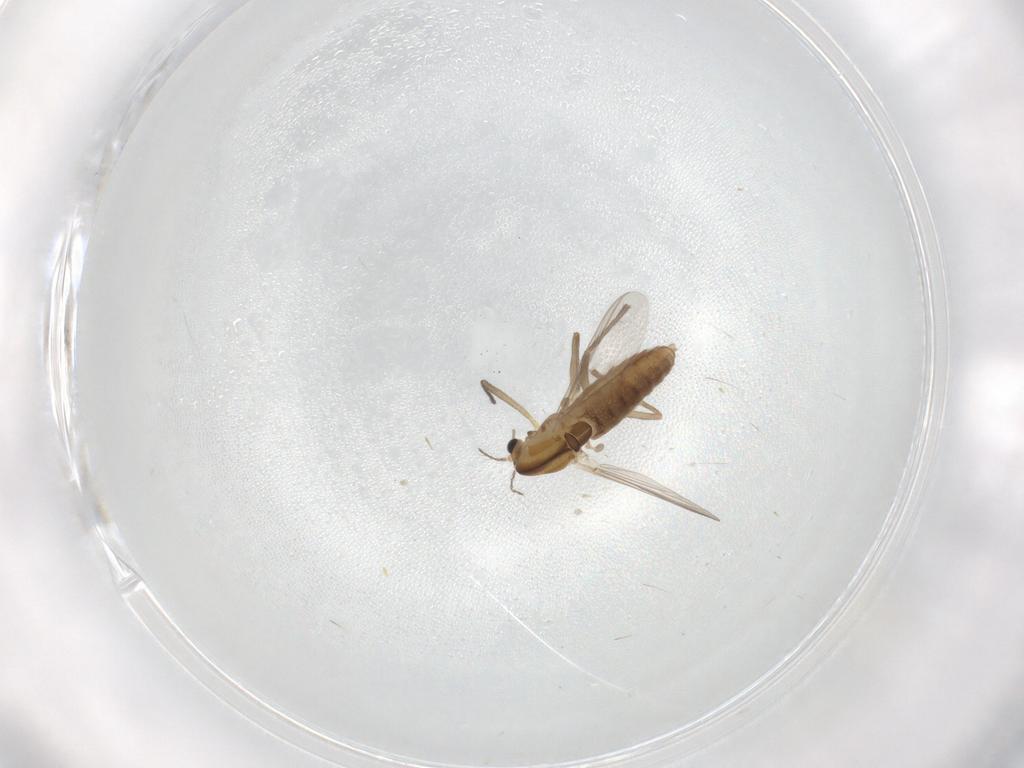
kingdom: Animalia
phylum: Arthropoda
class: Insecta
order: Diptera
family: Chironomidae
